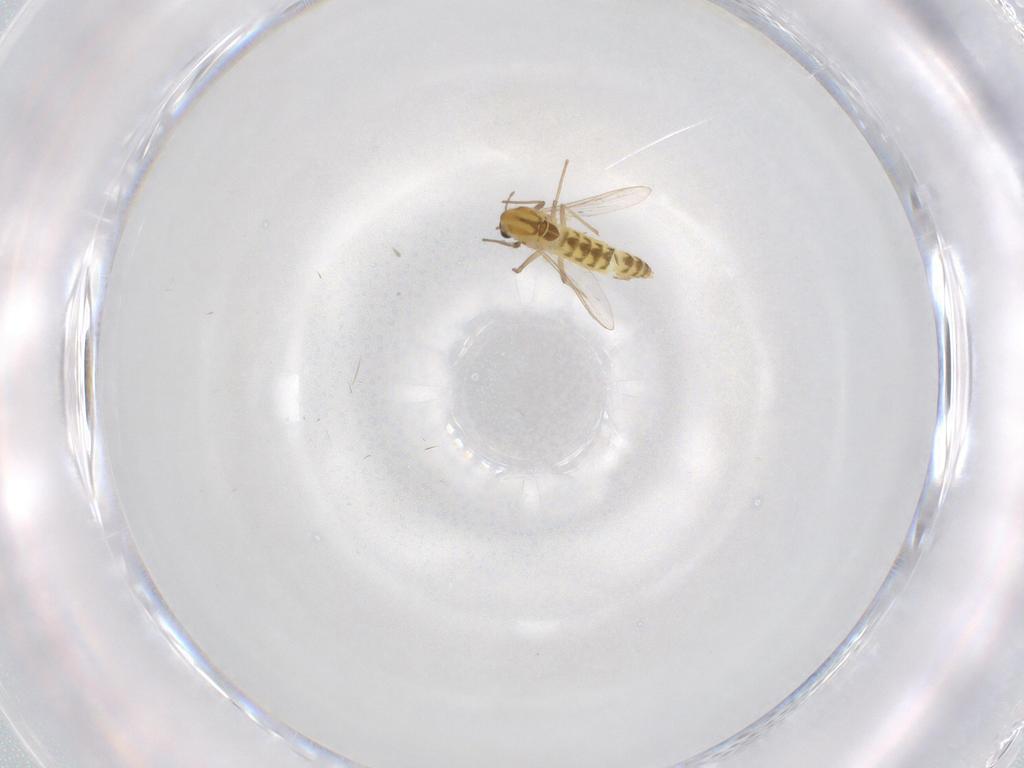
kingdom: Animalia
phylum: Arthropoda
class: Insecta
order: Diptera
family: Chironomidae
